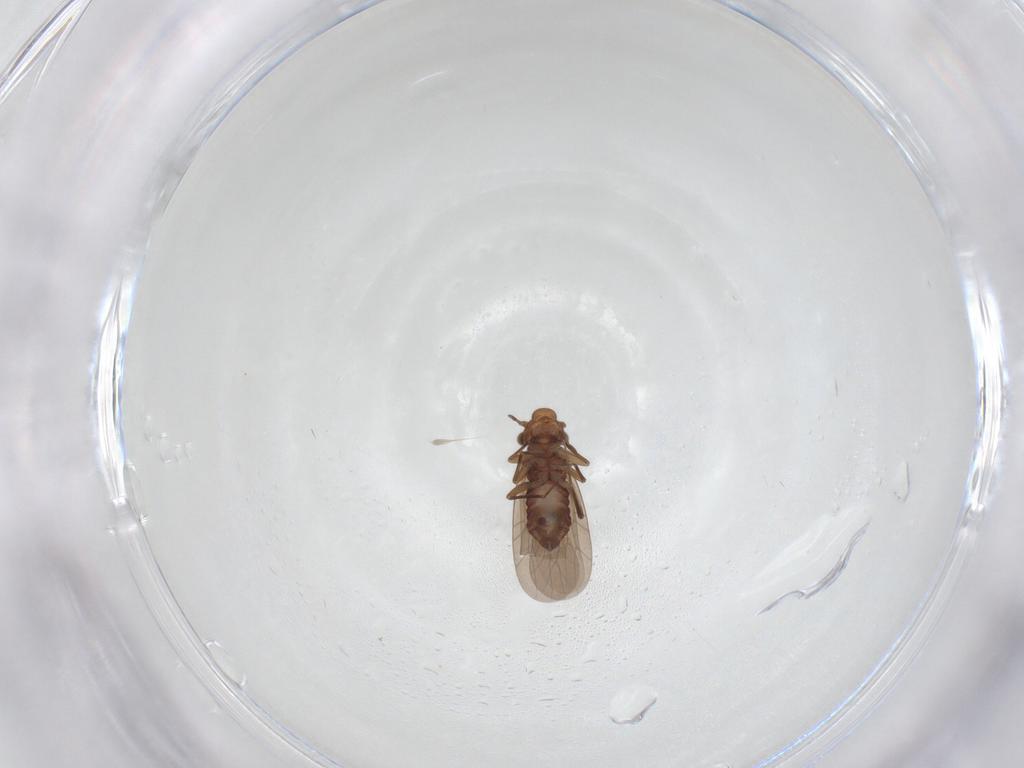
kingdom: Animalia
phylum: Arthropoda
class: Insecta
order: Psocodea
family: Lepidopsocidae
